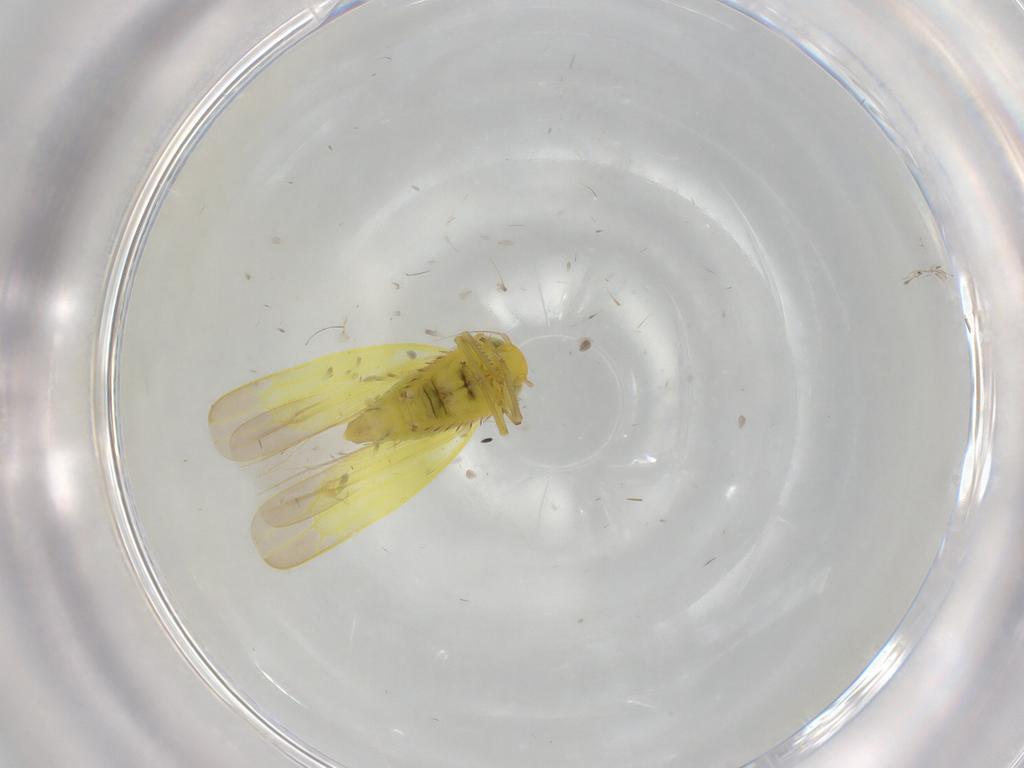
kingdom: Animalia
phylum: Arthropoda
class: Insecta
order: Hemiptera
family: Cicadellidae
